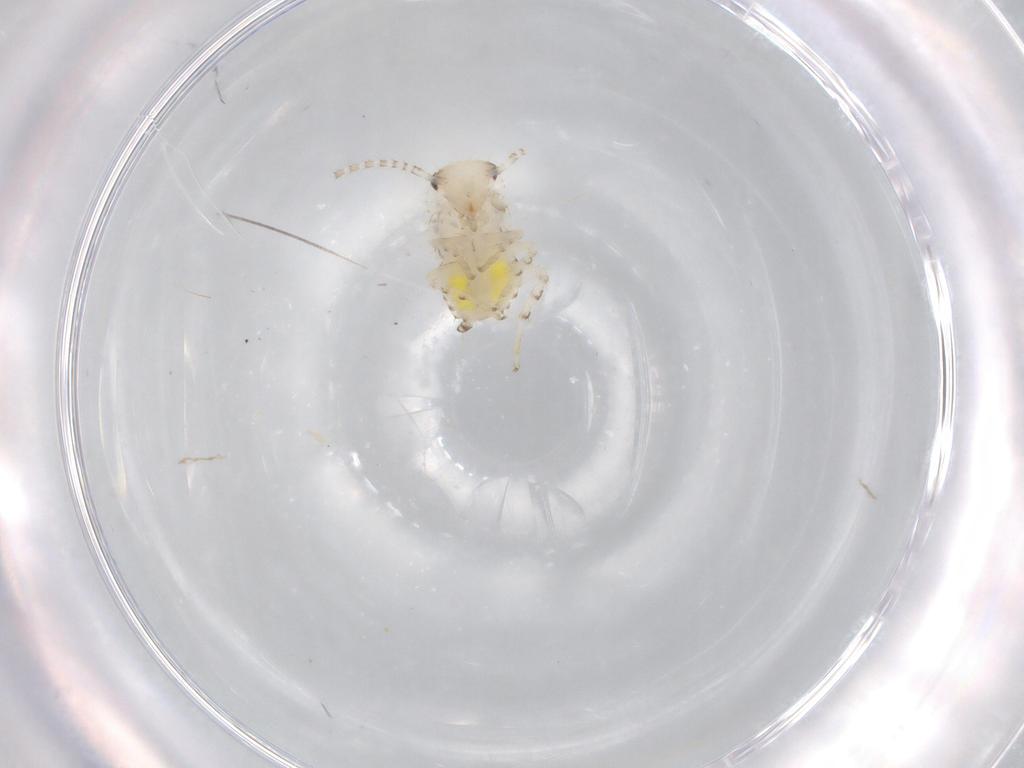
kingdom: Animalia
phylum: Arthropoda
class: Insecta
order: Blattodea
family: Ectobiidae
